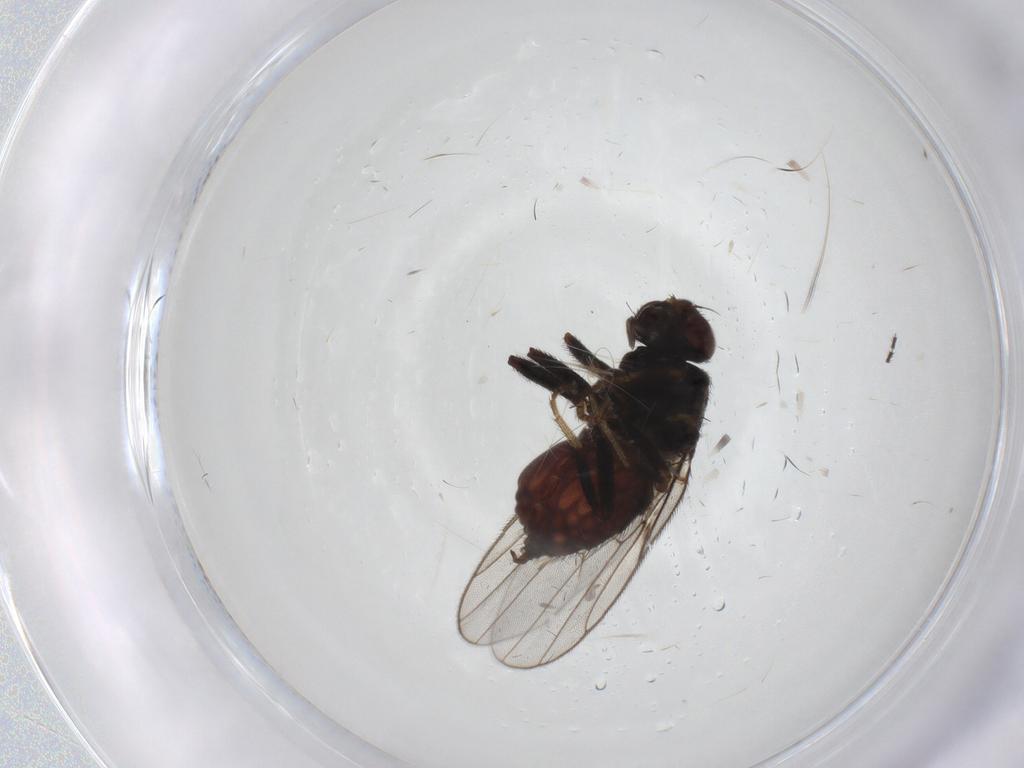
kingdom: Animalia
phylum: Arthropoda
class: Insecta
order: Diptera
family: Chloropidae
